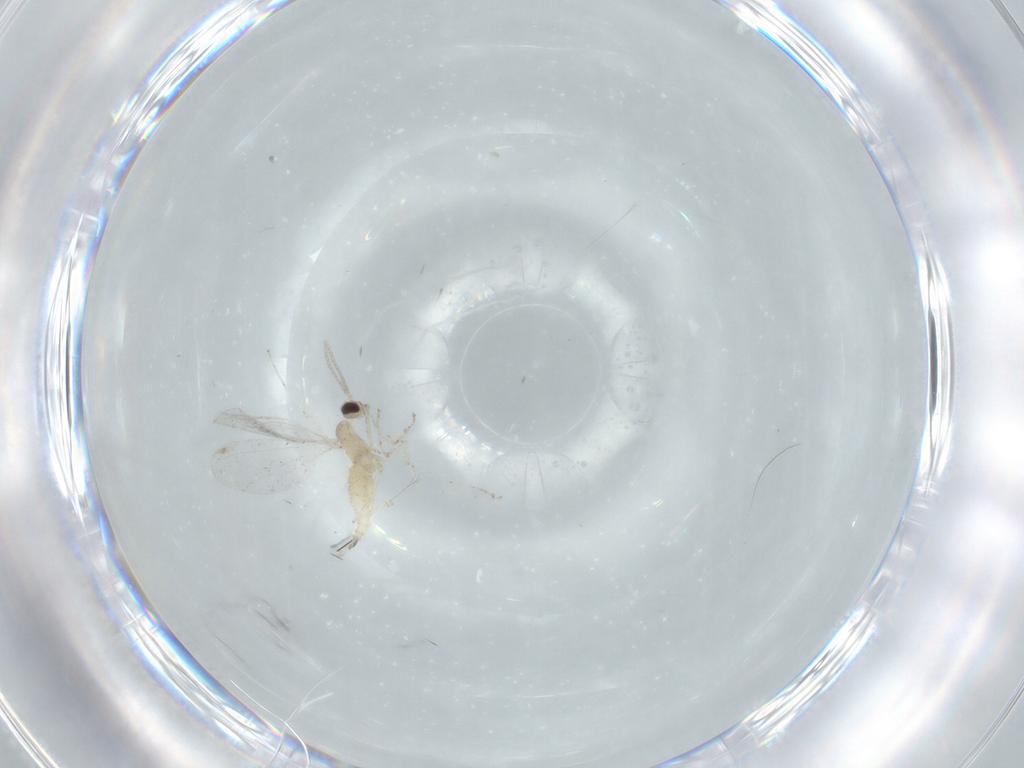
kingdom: Animalia
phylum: Arthropoda
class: Insecta
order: Diptera
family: Cecidomyiidae
